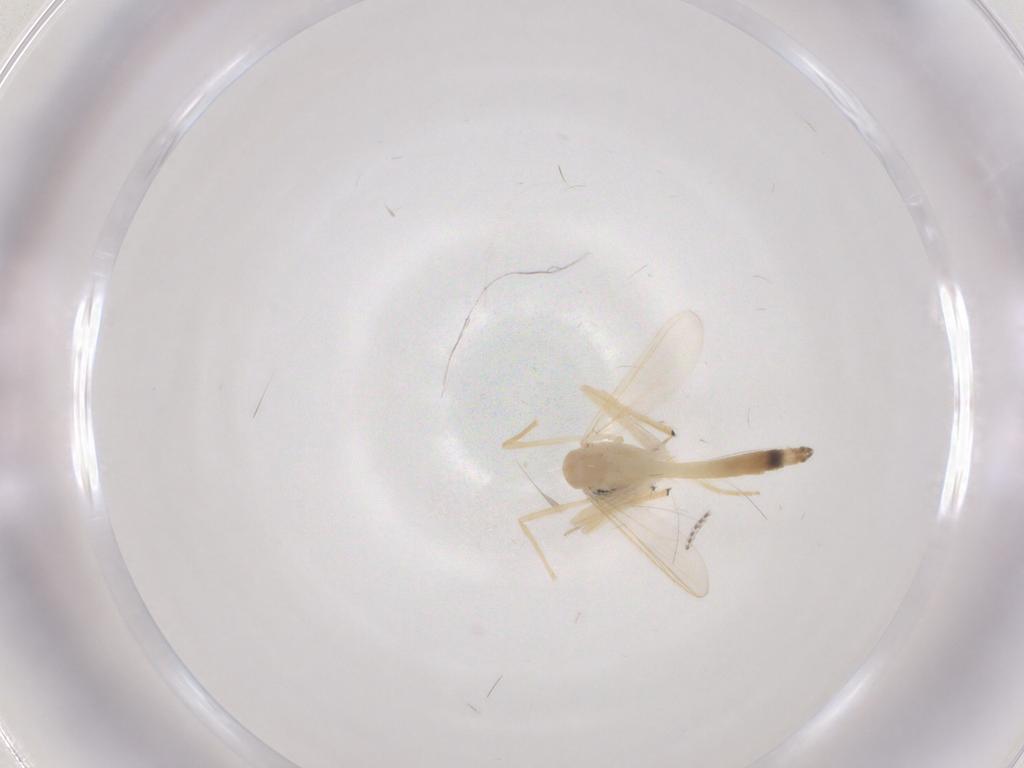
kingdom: Animalia
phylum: Arthropoda
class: Insecta
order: Diptera
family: Chironomidae
